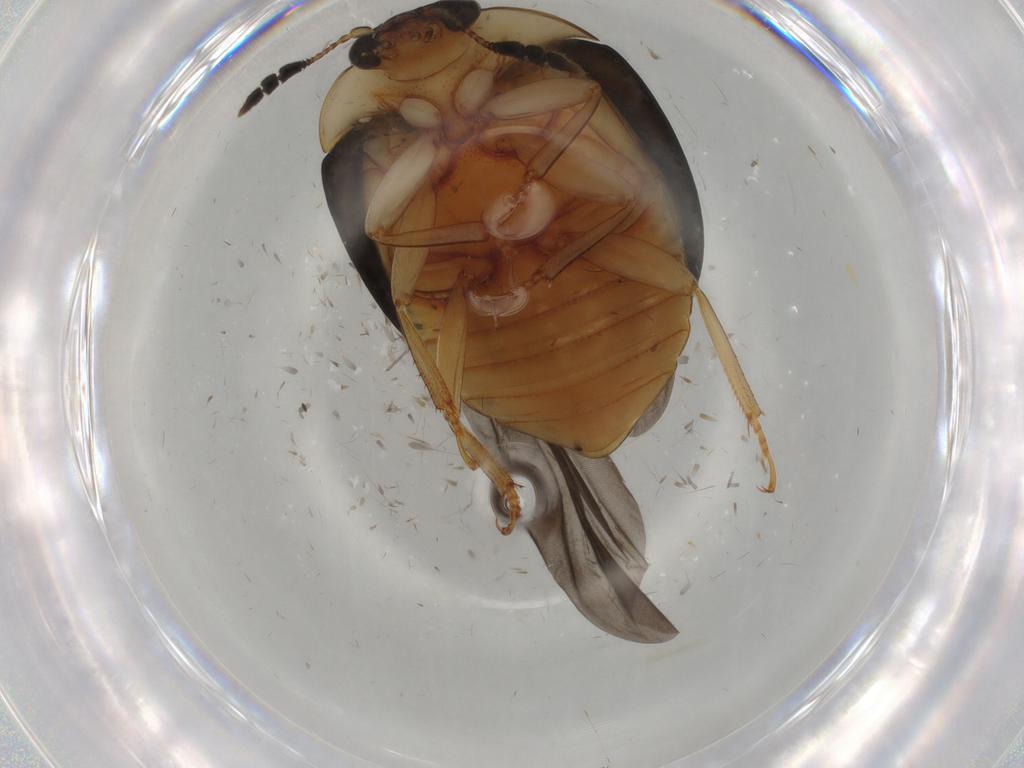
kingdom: Animalia
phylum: Arthropoda
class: Insecta
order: Coleoptera
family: Nitidulidae
